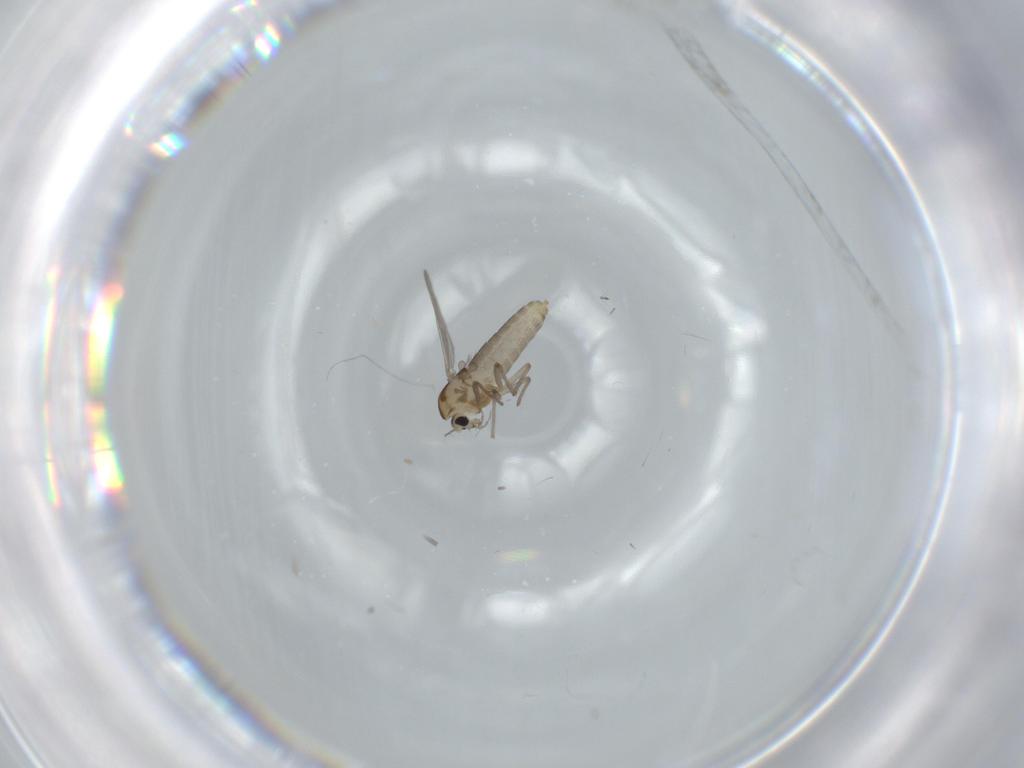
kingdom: Animalia
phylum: Arthropoda
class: Insecta
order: Diptera
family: Chironomidae
